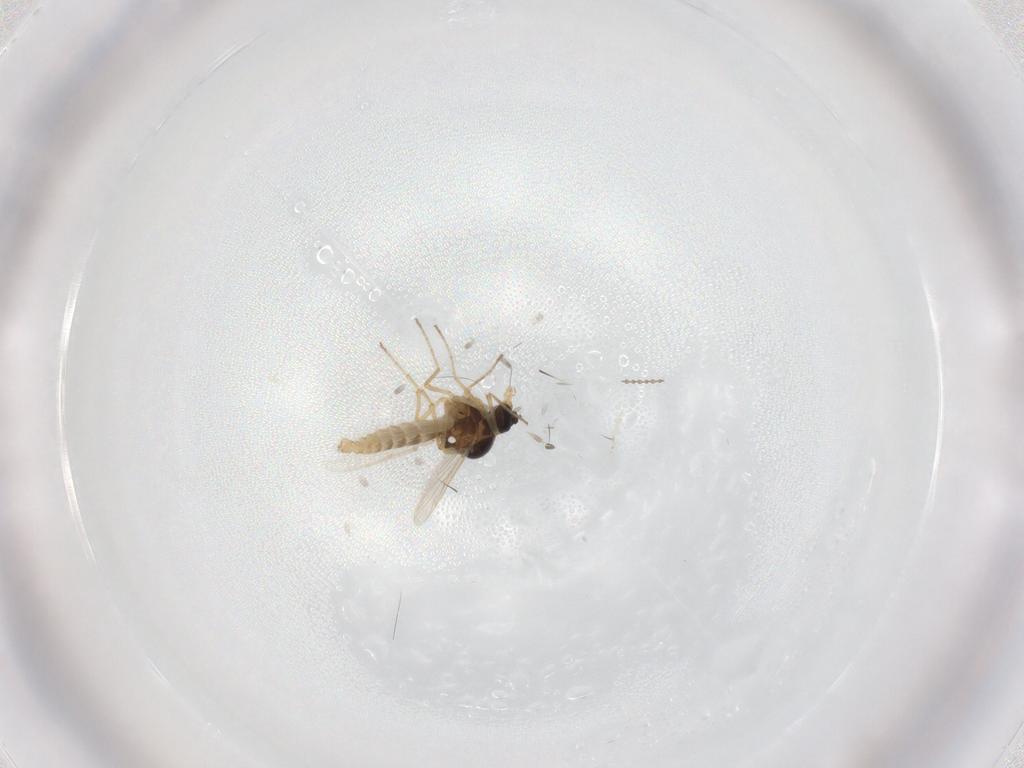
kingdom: Animalia
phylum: Arthropoda
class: Insecta
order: Diptera
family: Ceratopogonidae
